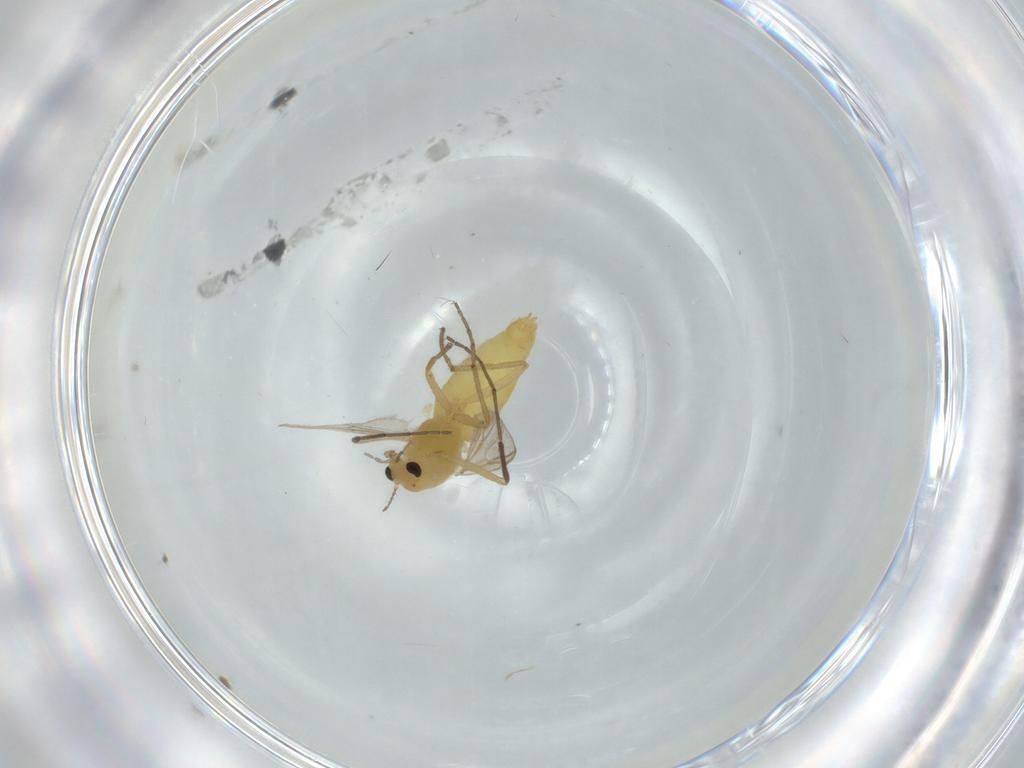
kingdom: Animalia
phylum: Arthropoda
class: Insecta
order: Diptera
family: Chironomidae
